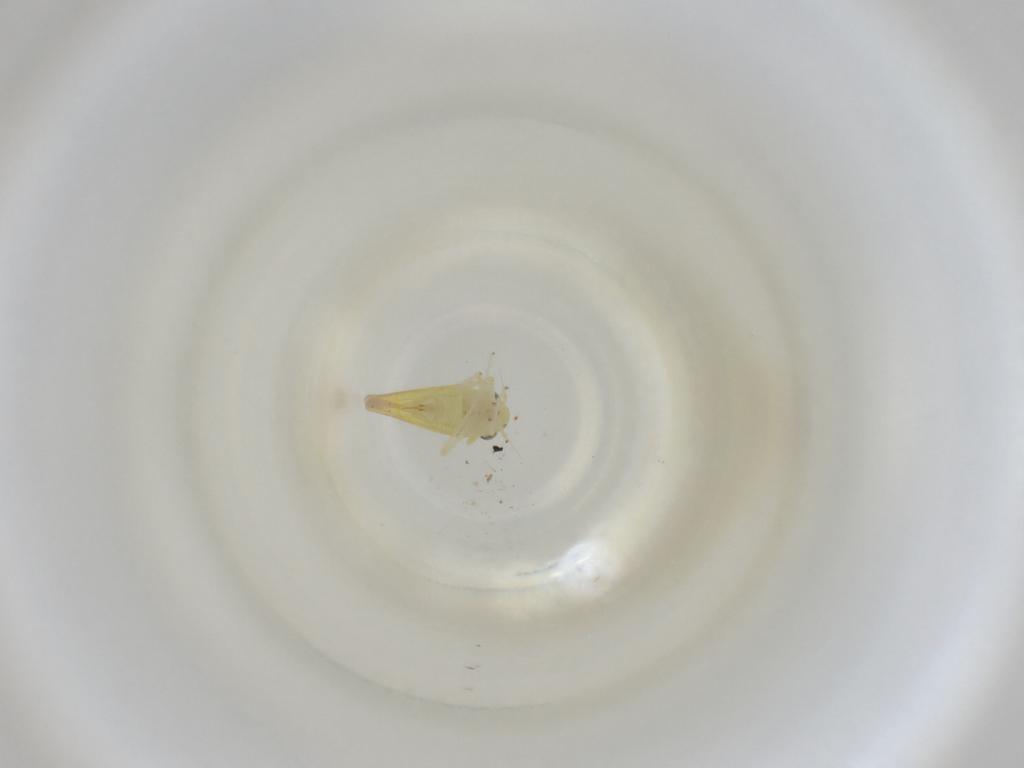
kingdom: Animalia
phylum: Arthropoda
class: Insecta
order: Hemiptera
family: Cicadellidae
